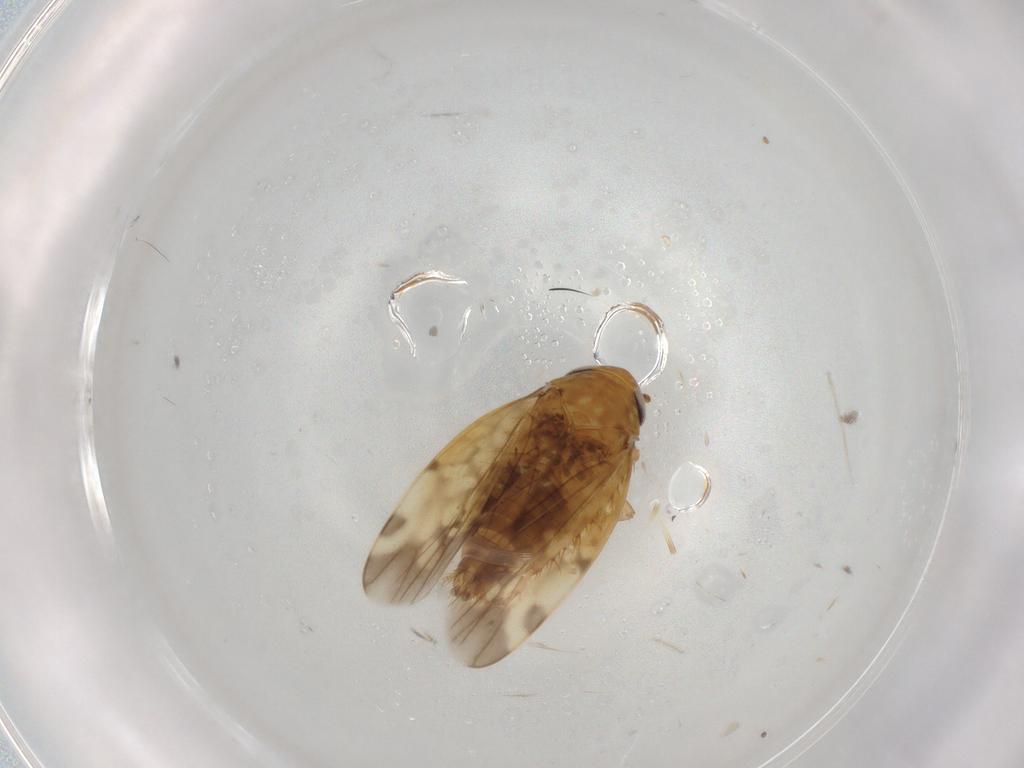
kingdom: Animalia
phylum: Arthropoda
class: Insecta
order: Hemiptera
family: Cicadellidae
